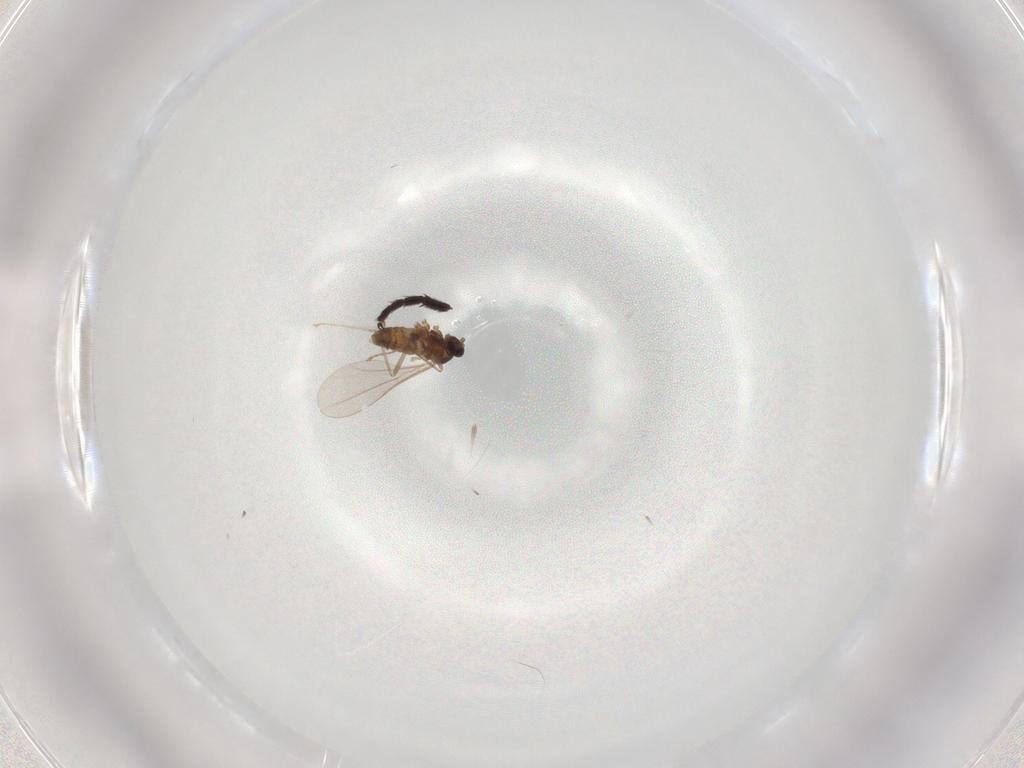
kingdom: Animalia
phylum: Arthropoda
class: Insecta
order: Diptera
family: Cecidomyiidae
